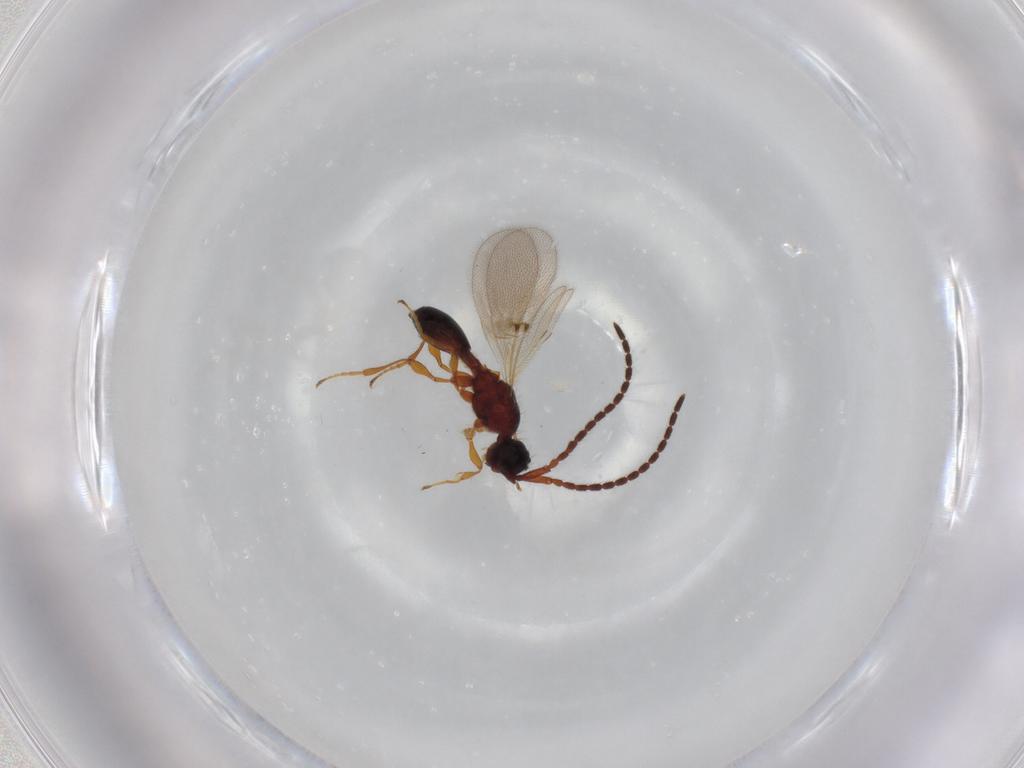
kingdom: Animalia
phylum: Arthropoda
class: Insecta
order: Hymenoptera
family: Diapriidae
